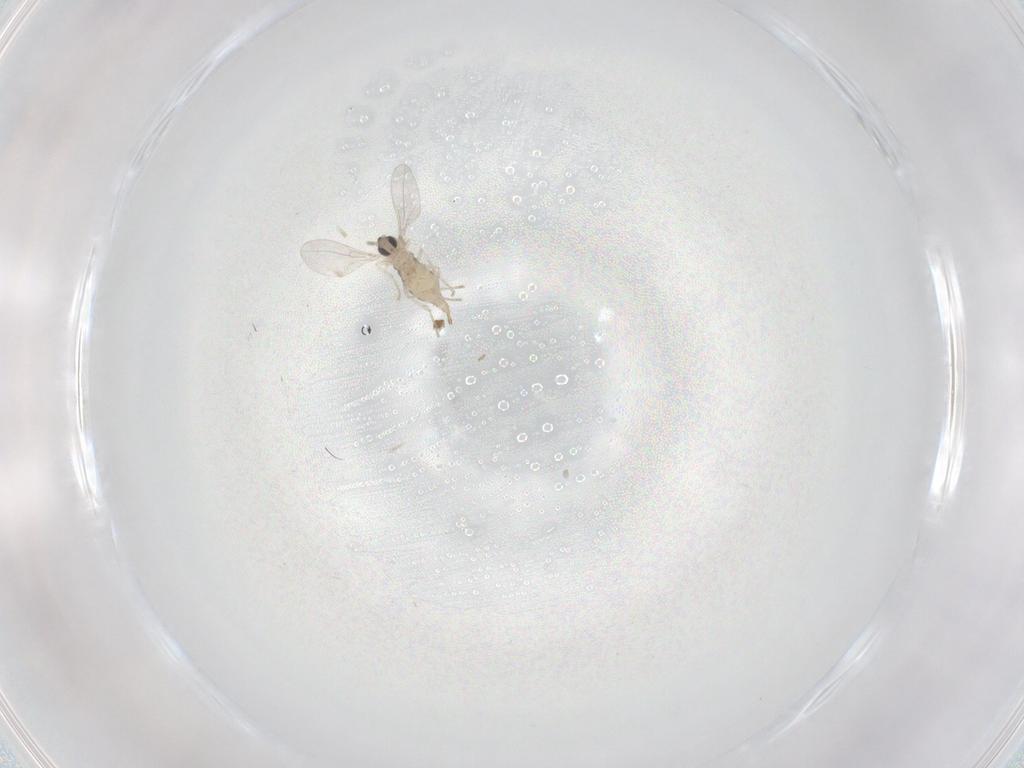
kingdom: Animalia
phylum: Arthropoda
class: Insecta
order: Diptera
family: Cecidomyiidae
